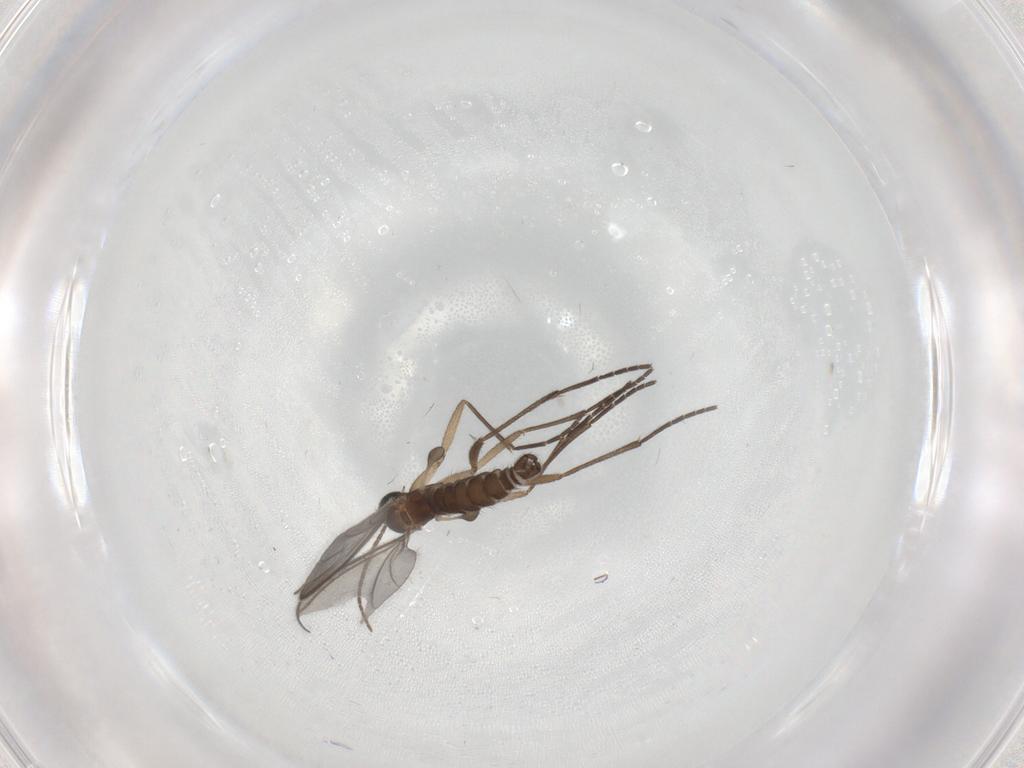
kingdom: Animalia
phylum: Arthropoda
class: Insecta
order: Diptera
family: Sciaridae
